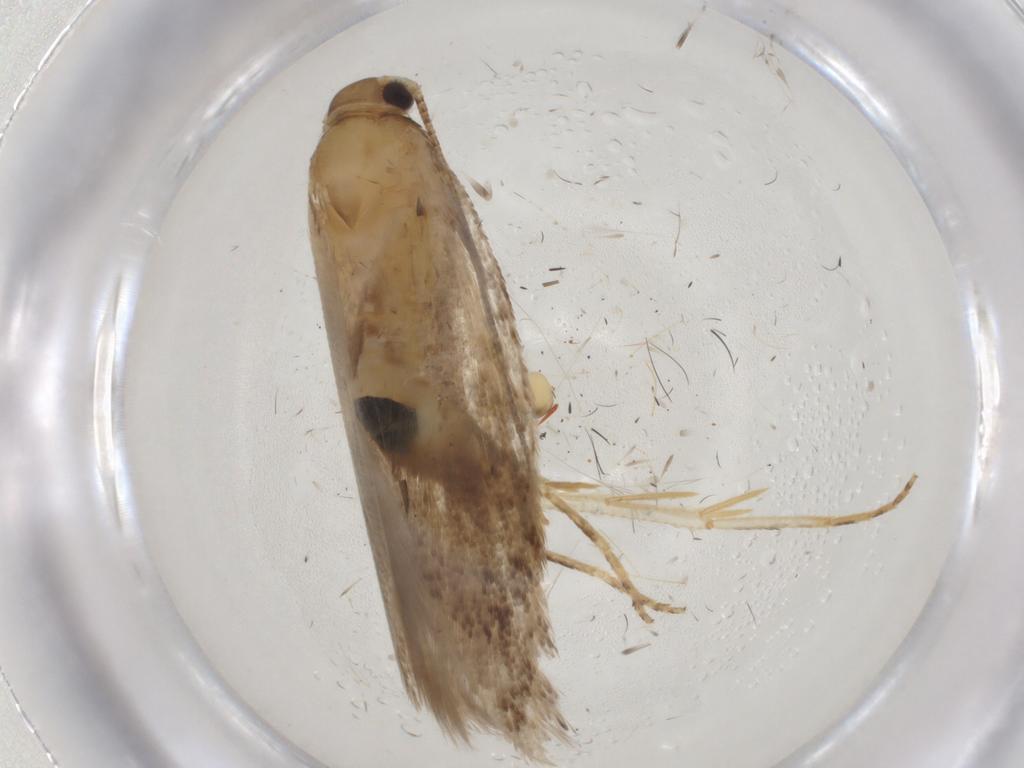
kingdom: Animalia
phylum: Arthropoda
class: Insecta
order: Lepidoptera
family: Gelechiidae
